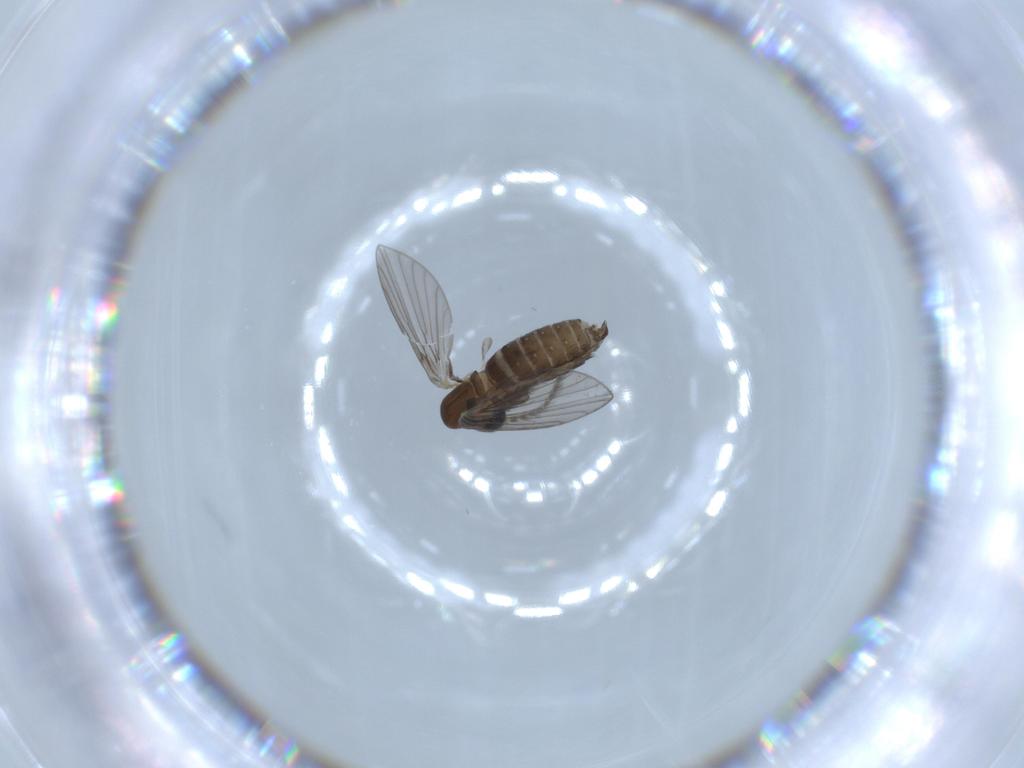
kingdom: Animalia
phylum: Arthropoda
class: Insecta
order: Diptera
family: Psychodidae
